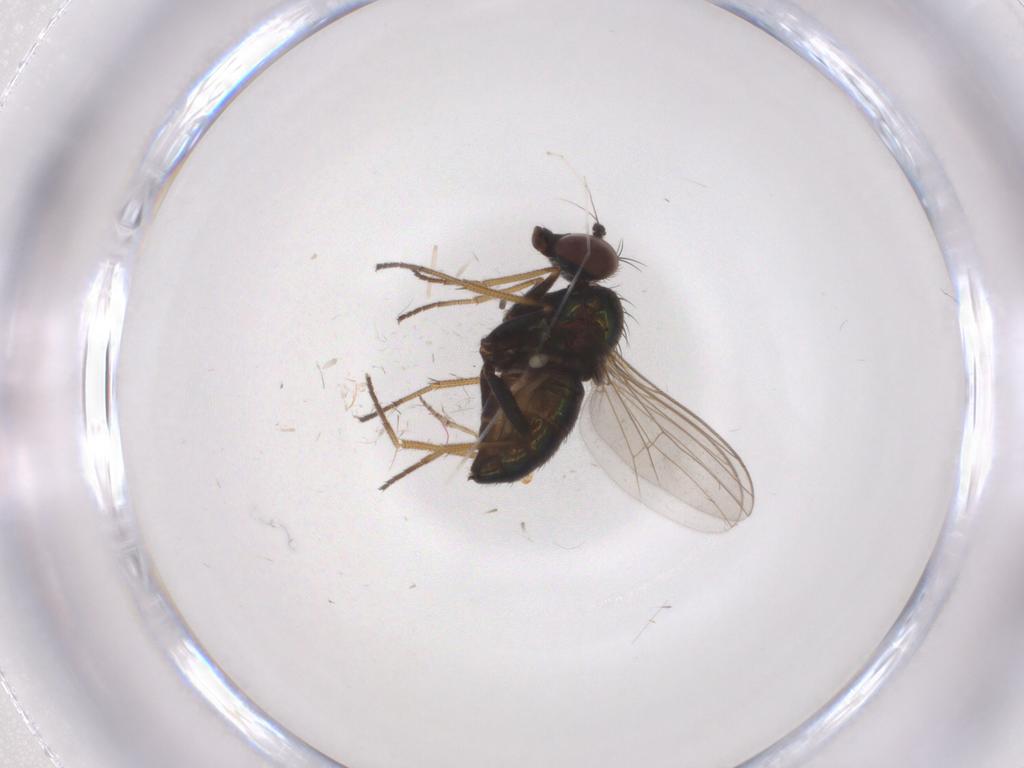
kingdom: Animalia
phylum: Arthropoda
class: Insecta
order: Diptera
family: Dolichopodidae
